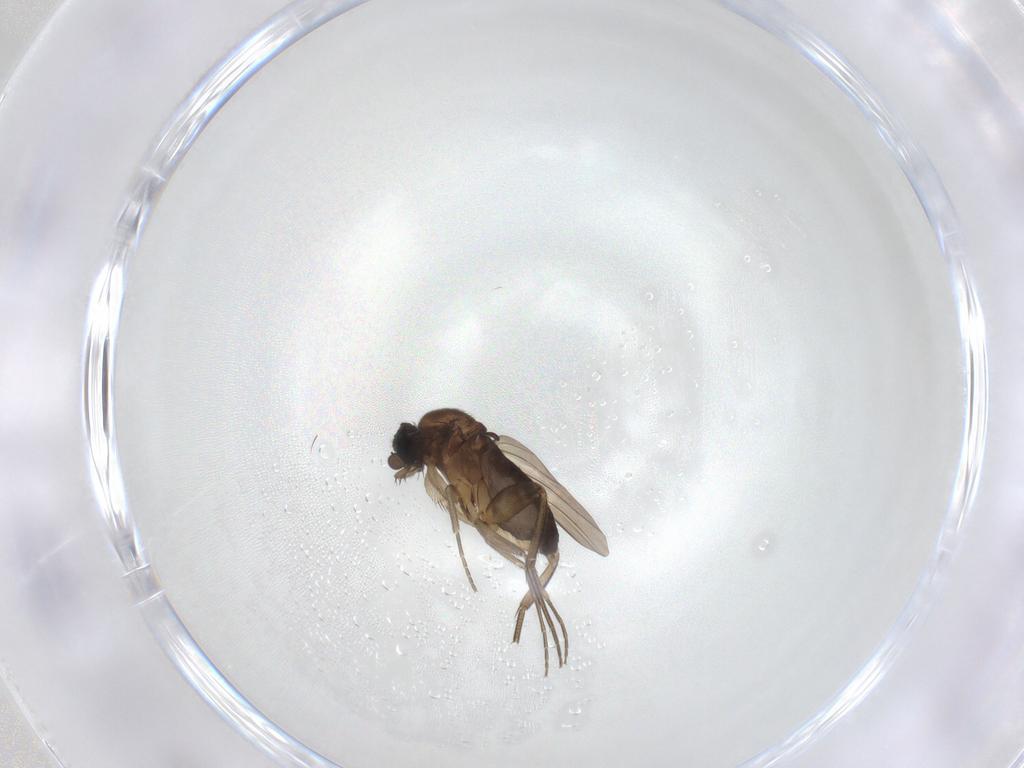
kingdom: Animalia
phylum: Arthropoda
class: Insecta
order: Diptera
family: Phoridae
